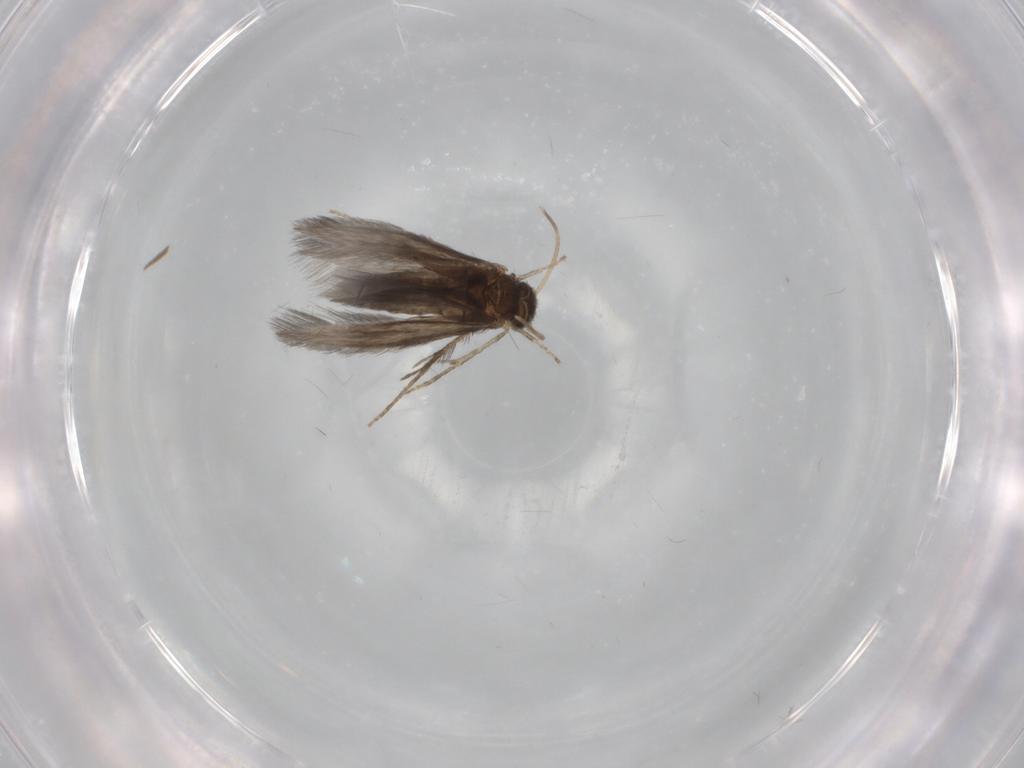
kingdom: Animalia
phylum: Arthropoda
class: Insecta
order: Trichoptera
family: Hydroptilidae
